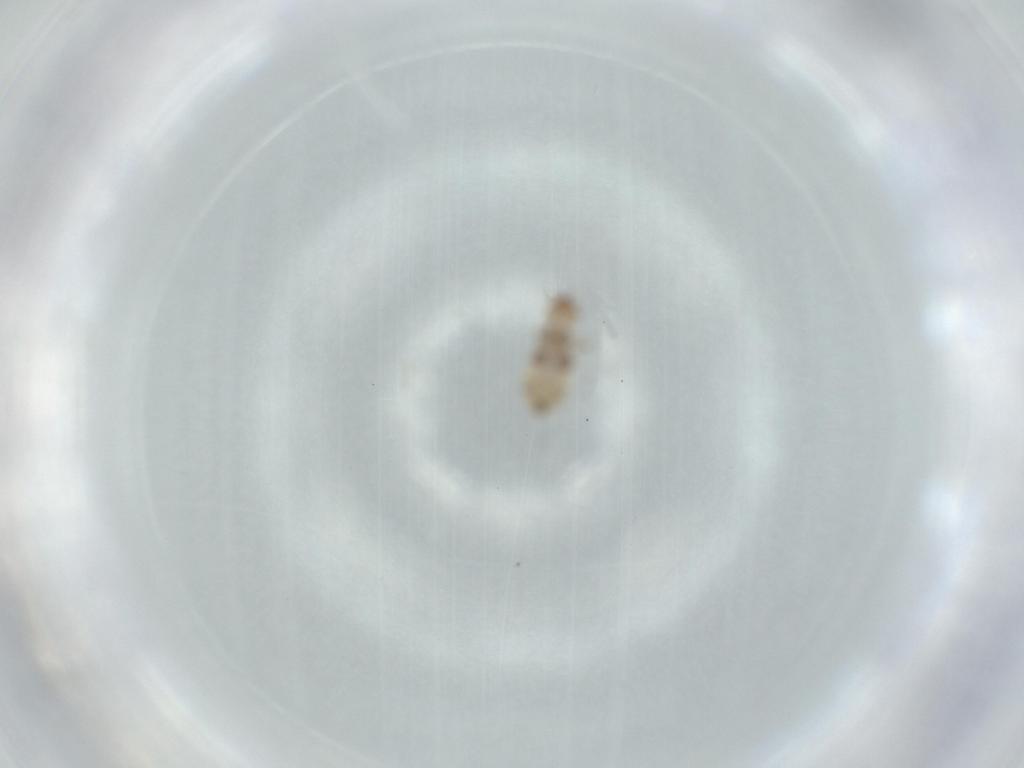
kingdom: Animalia
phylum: Arthropoda
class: Insecta
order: Psocodea
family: Liposcelididae
